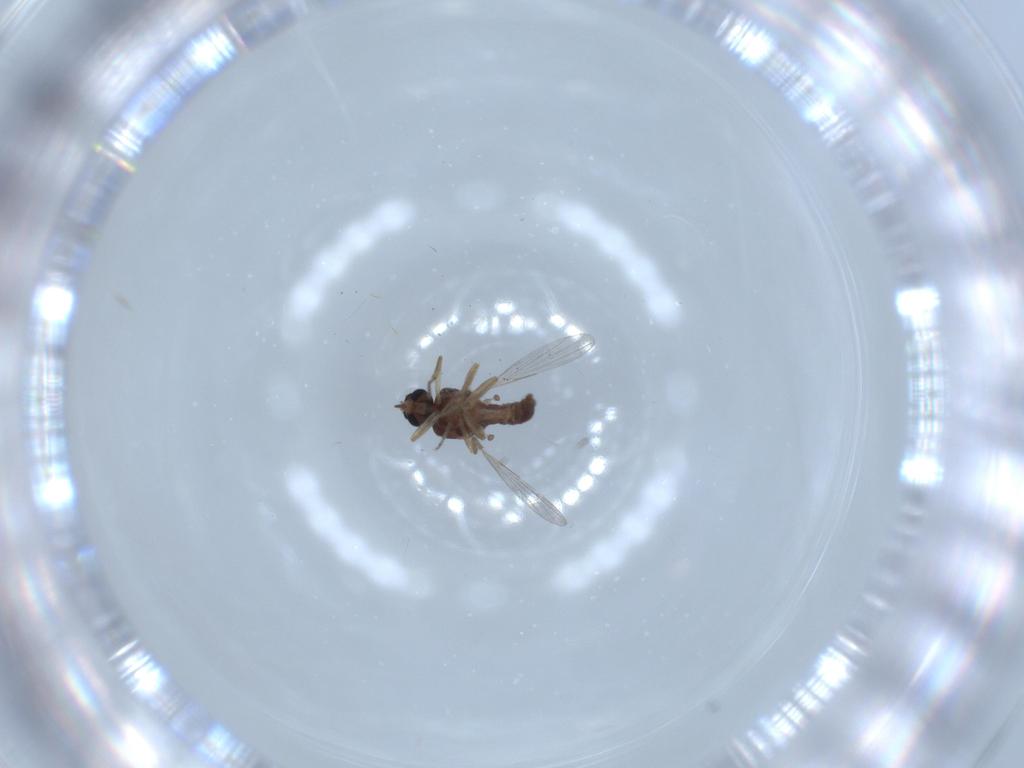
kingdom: Animalia
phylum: Arthropoda
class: Insecta
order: Diptera
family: Ceratopogonidae
